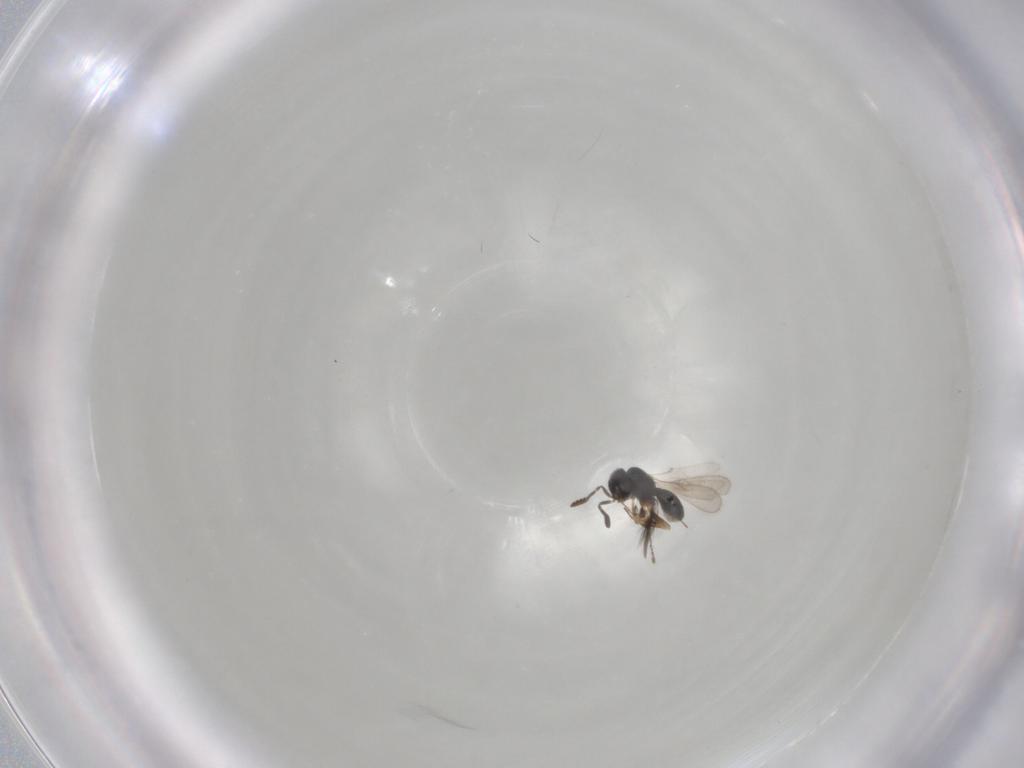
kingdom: Animalia
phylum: Arthropoda
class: Insecta
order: Hymenoptera
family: Scelionidae
